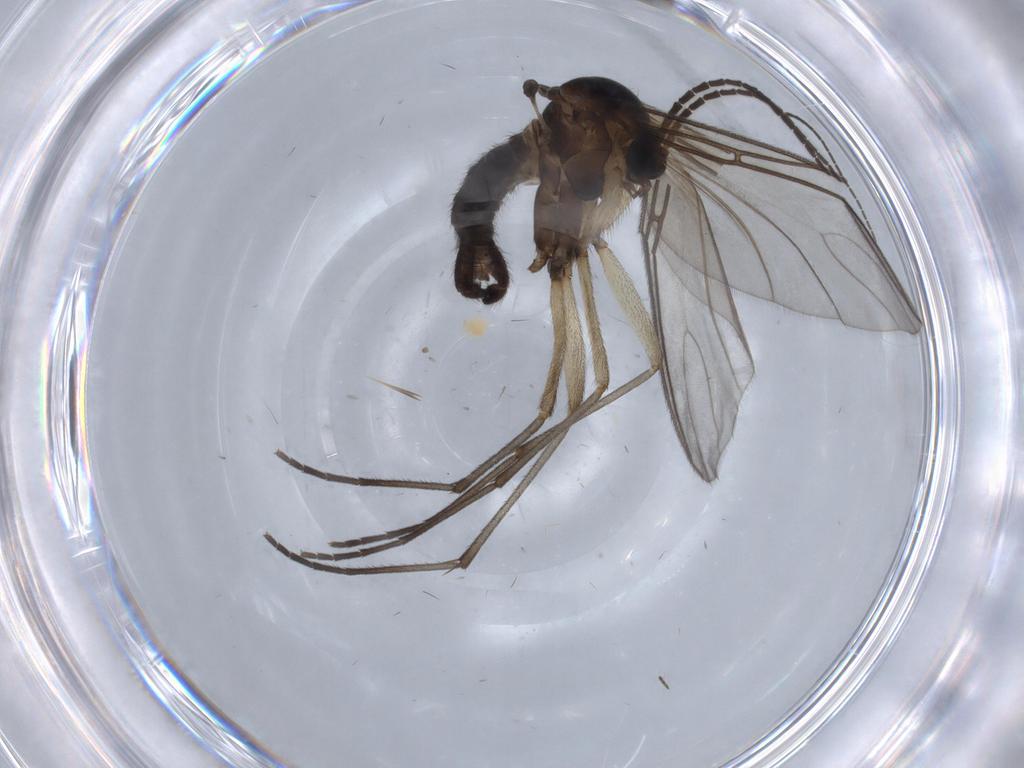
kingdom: Animalia
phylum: Arthropoda
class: Insecta
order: Diptera
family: Sciaridae
